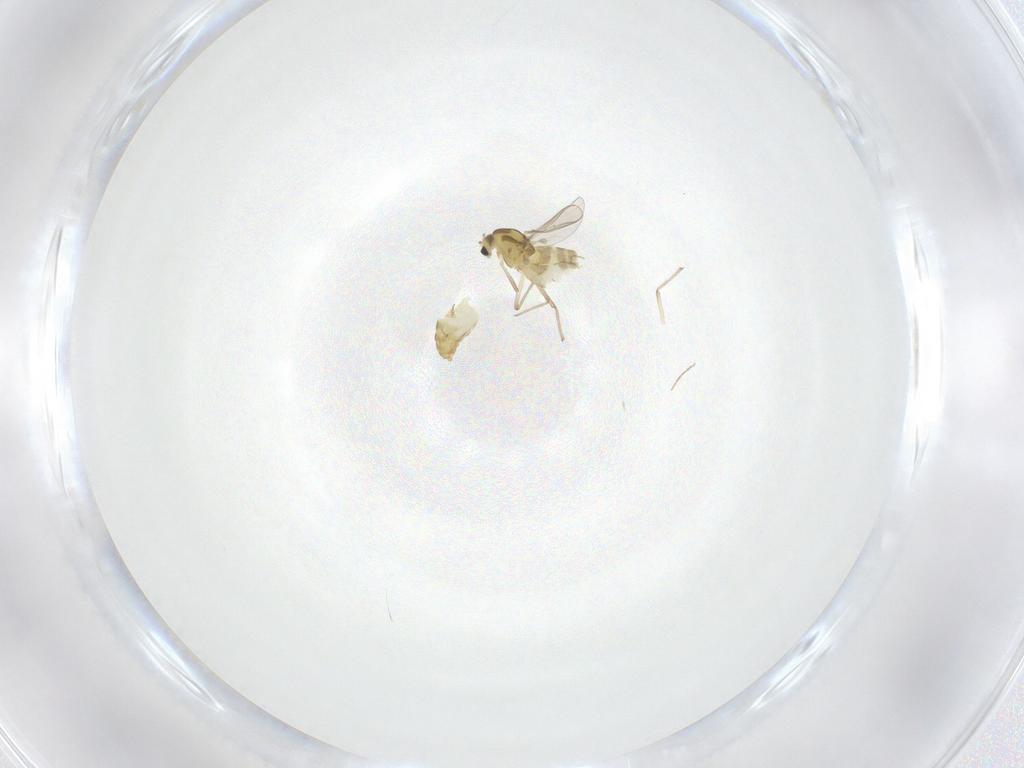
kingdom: Animalia
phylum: Arthropoda
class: Insecta
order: Diptera
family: Chironomidae
